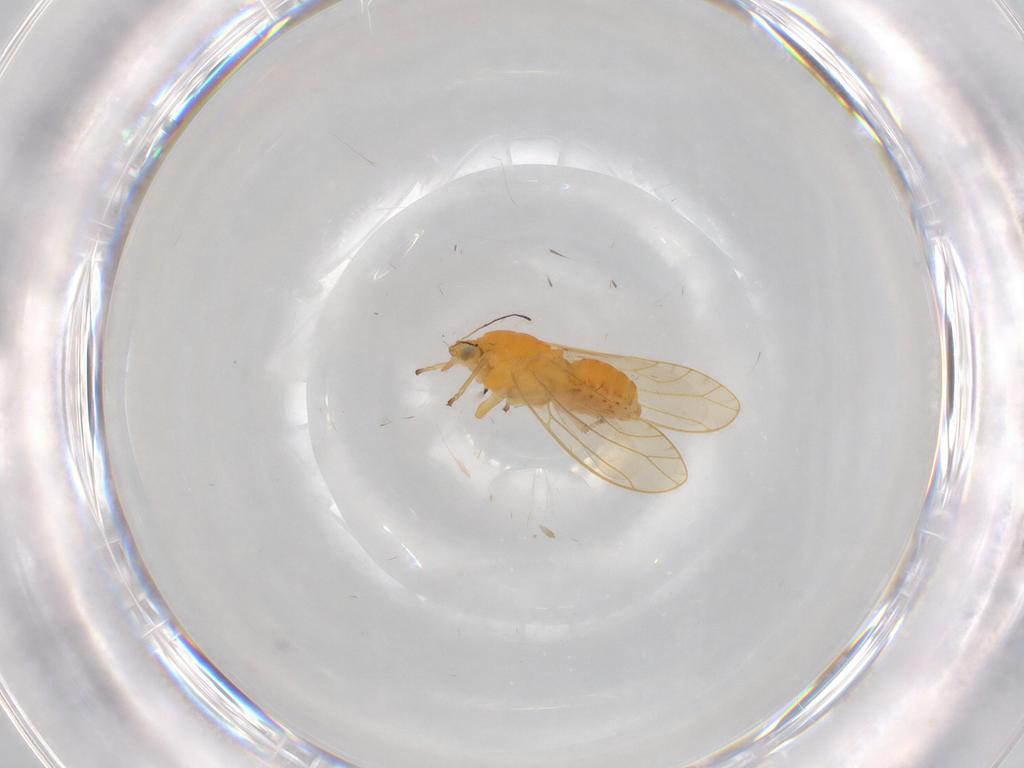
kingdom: Animalia
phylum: Arthropoda
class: Insecta
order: Hemiptera
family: Triozidae
